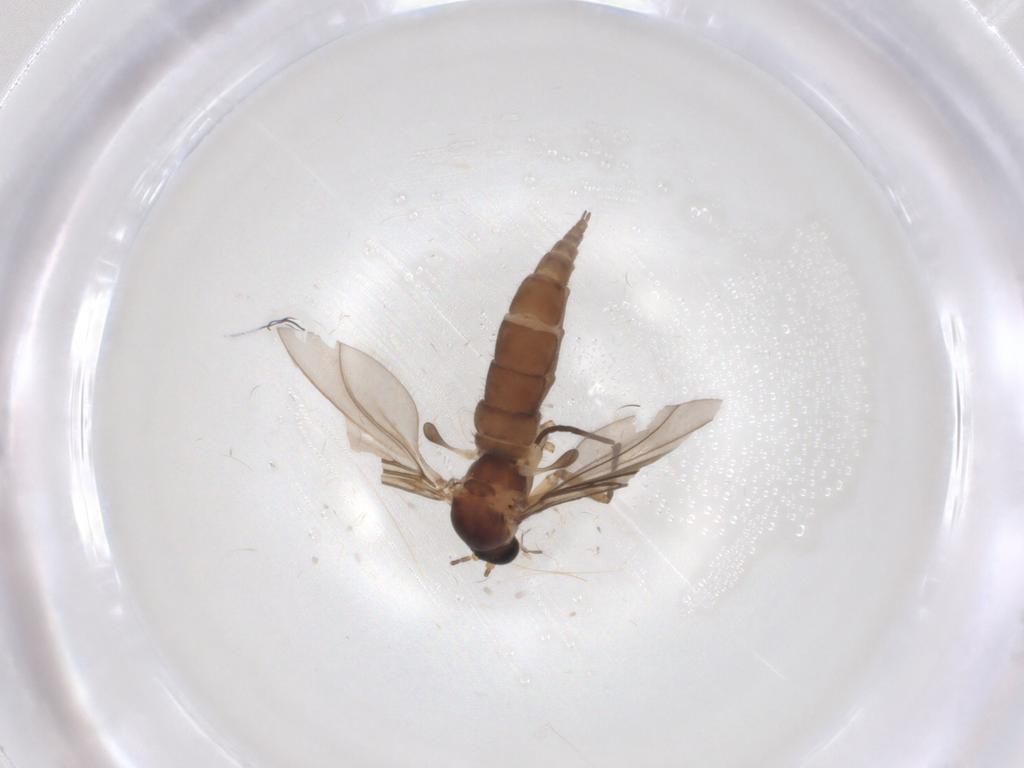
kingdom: Animalia
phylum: Arthropoda
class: Insecta
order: Diptera
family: Sciaridae
